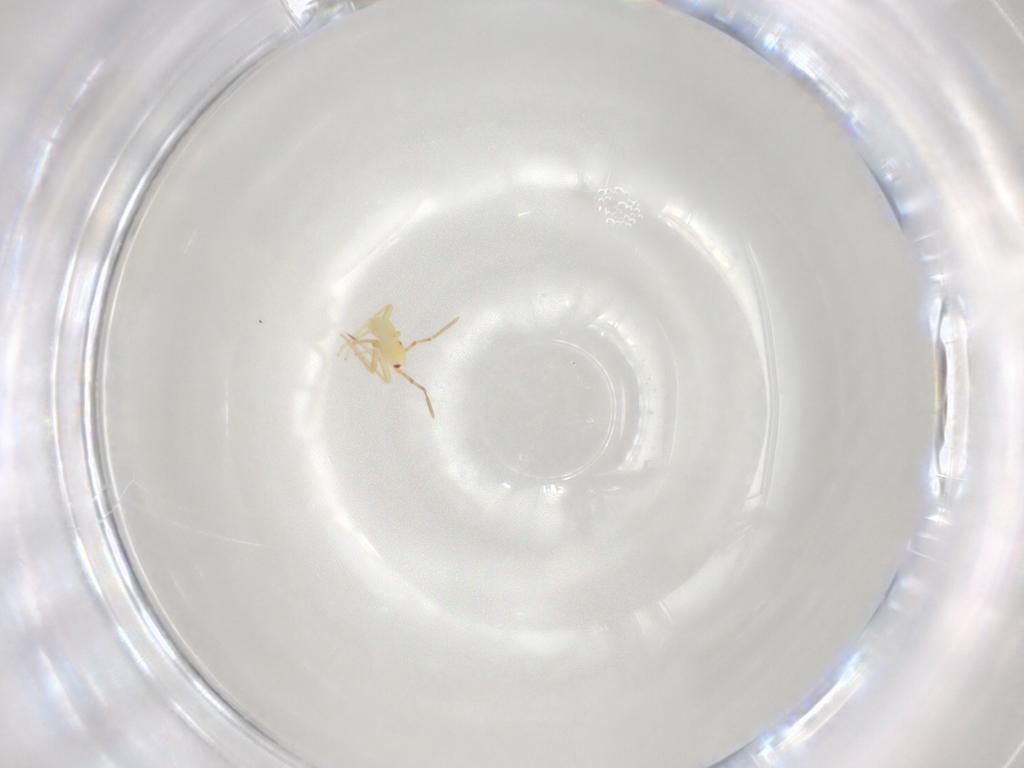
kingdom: Animalia
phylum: Arthropoda
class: Insecta
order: Hemiptera
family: Miridae
